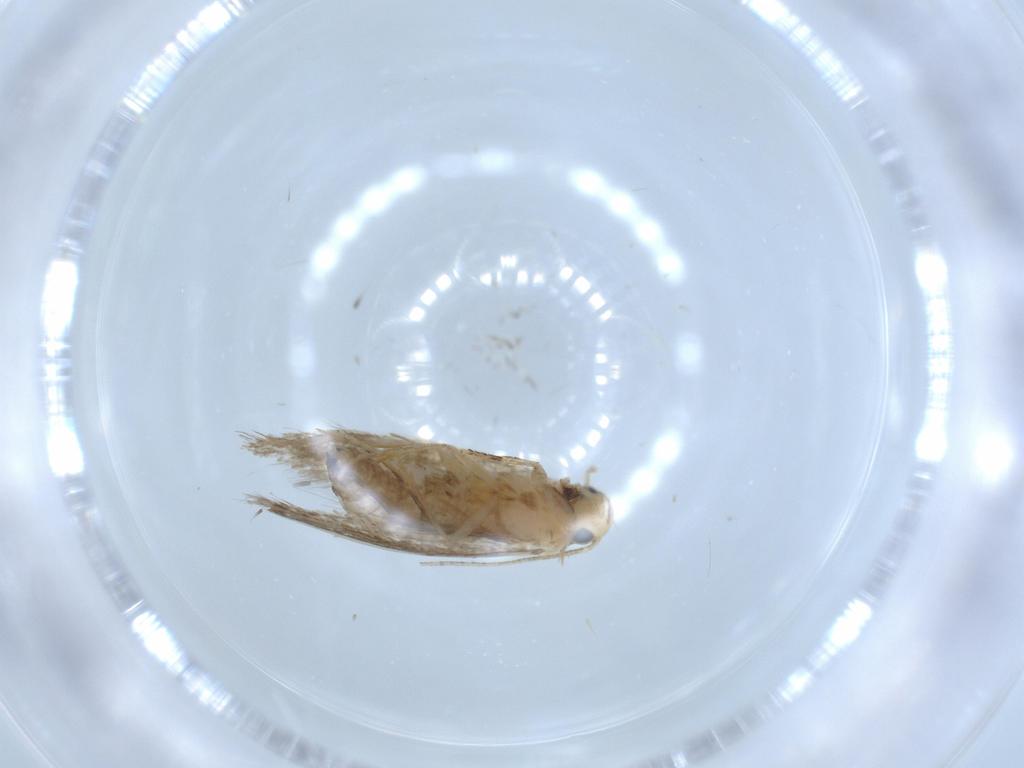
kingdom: Animalia
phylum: Arthropoda
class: Insecta
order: Lepidoptera
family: Tineidae
